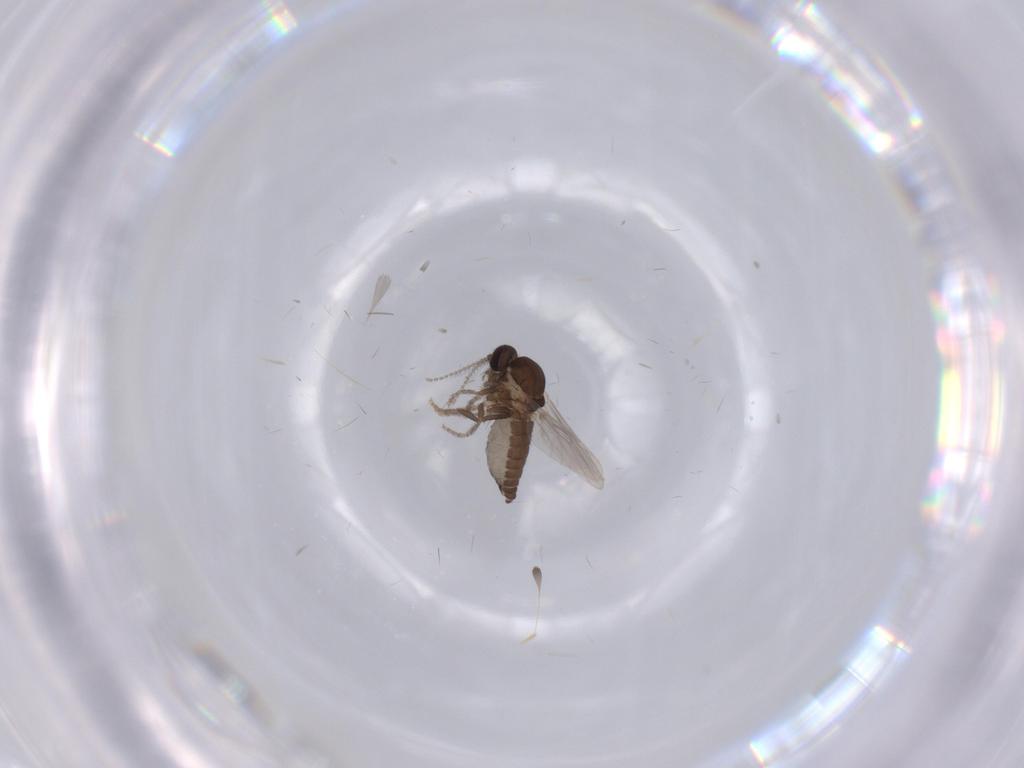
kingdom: Animalia
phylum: Arthropoda
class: Insecta
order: Diptera
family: Ceratopogonidae
